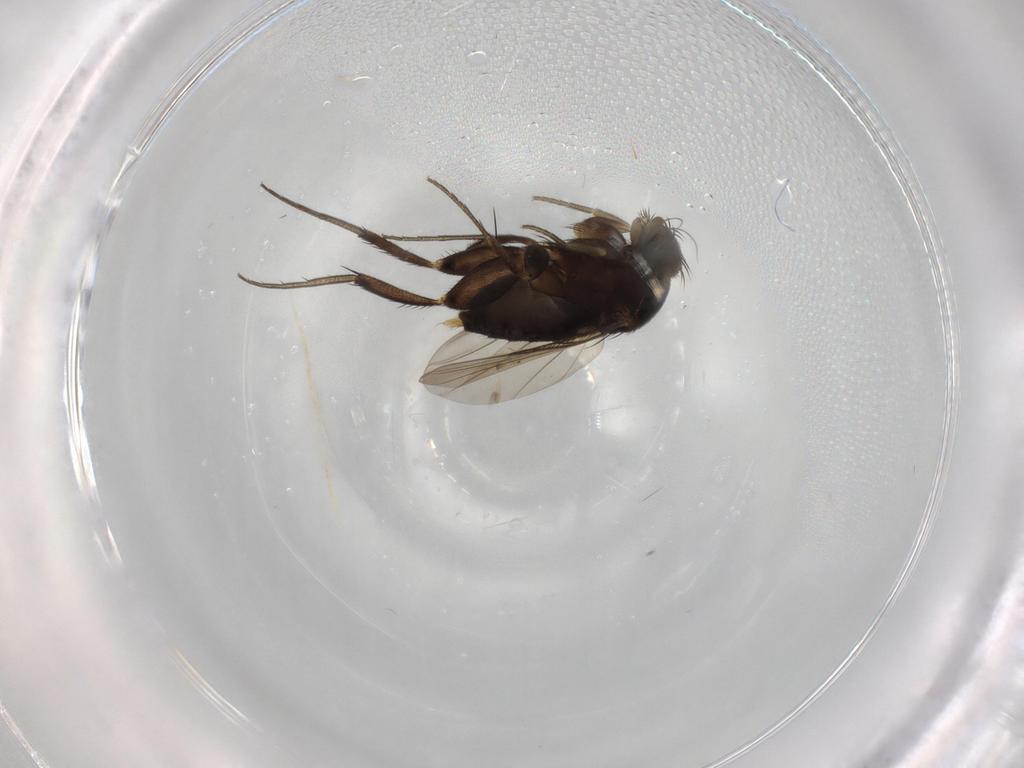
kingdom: Animalia
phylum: Arthropoda
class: Insecta
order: Diptera
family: Phoridae
